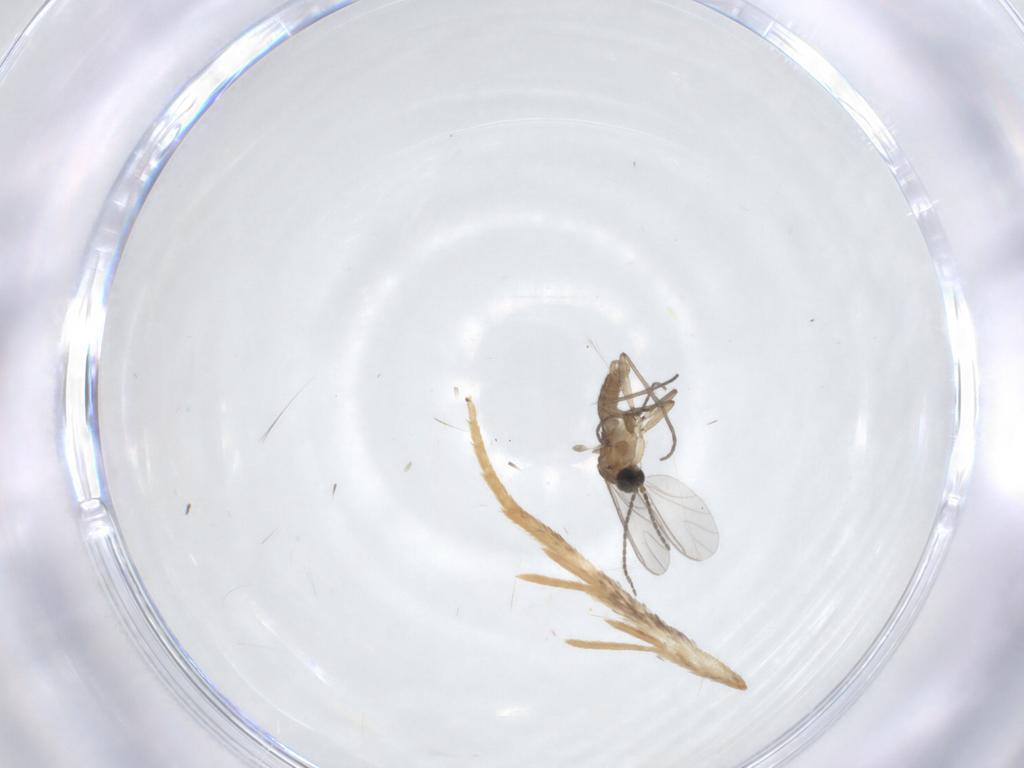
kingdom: Animalia
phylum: Arthropoda
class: Insecta
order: Diptera
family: Sciaridae
